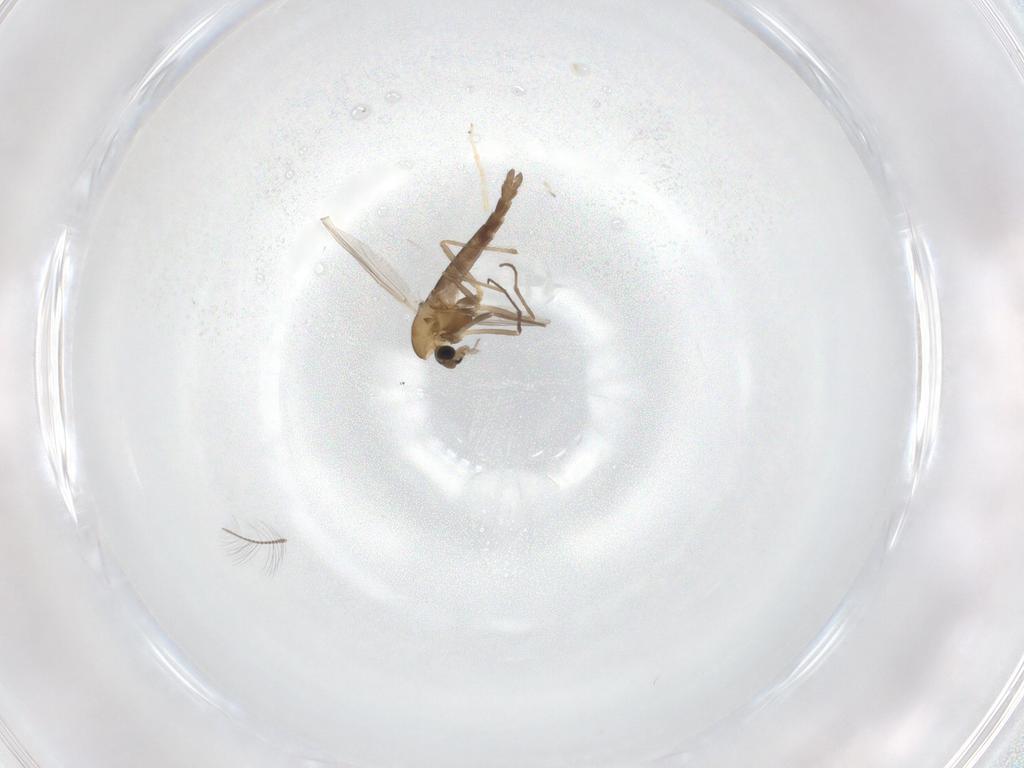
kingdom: Animalia
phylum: Arthropoda
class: Insecta
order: Diptera
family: Chironomidae
